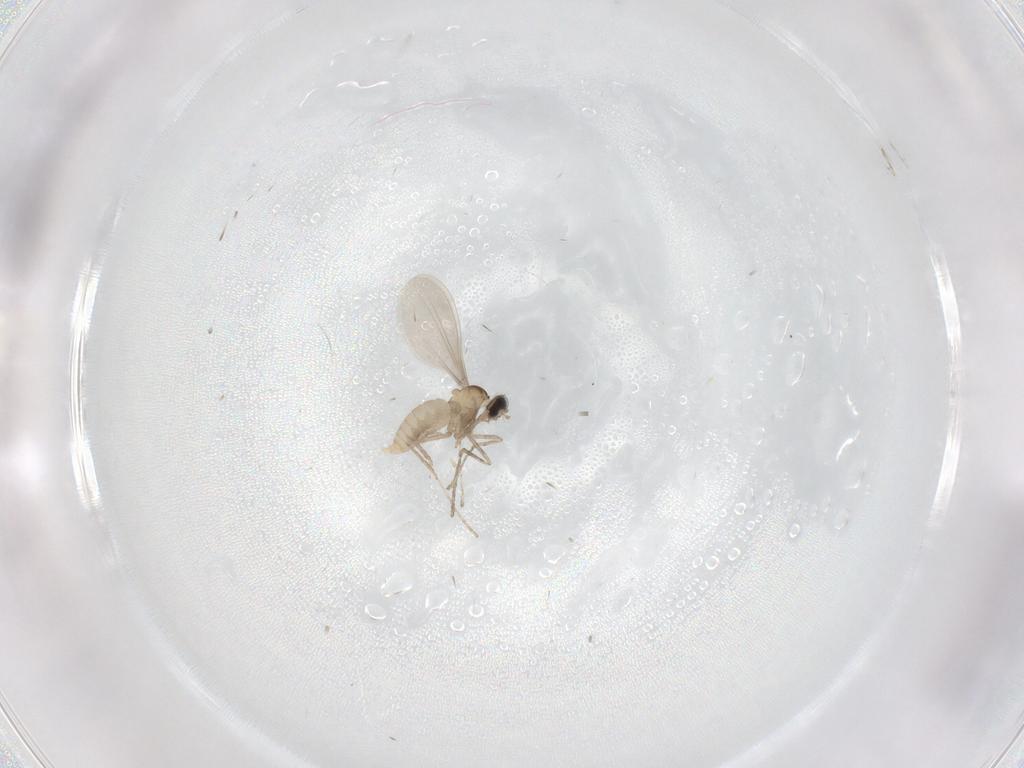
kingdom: Animalia
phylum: Arthropoda
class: Insecta
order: Diptera
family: Cecidomyiidae
